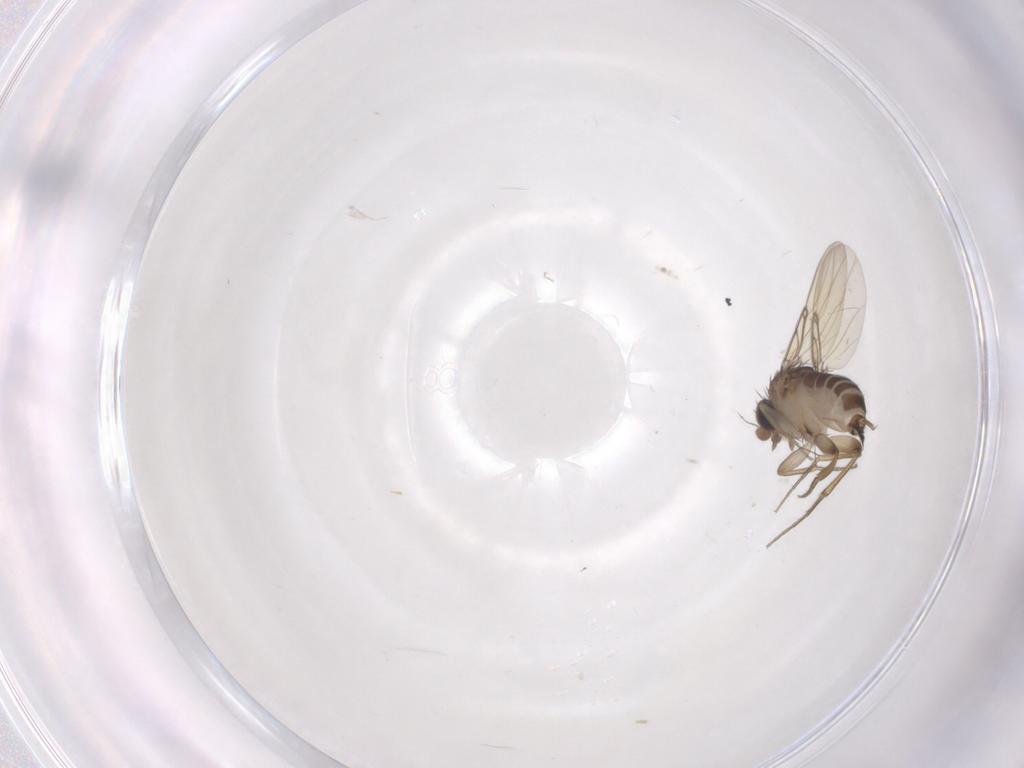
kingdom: Animalia
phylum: Arthropoda
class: Insecta
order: Diptera
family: Phoridae
